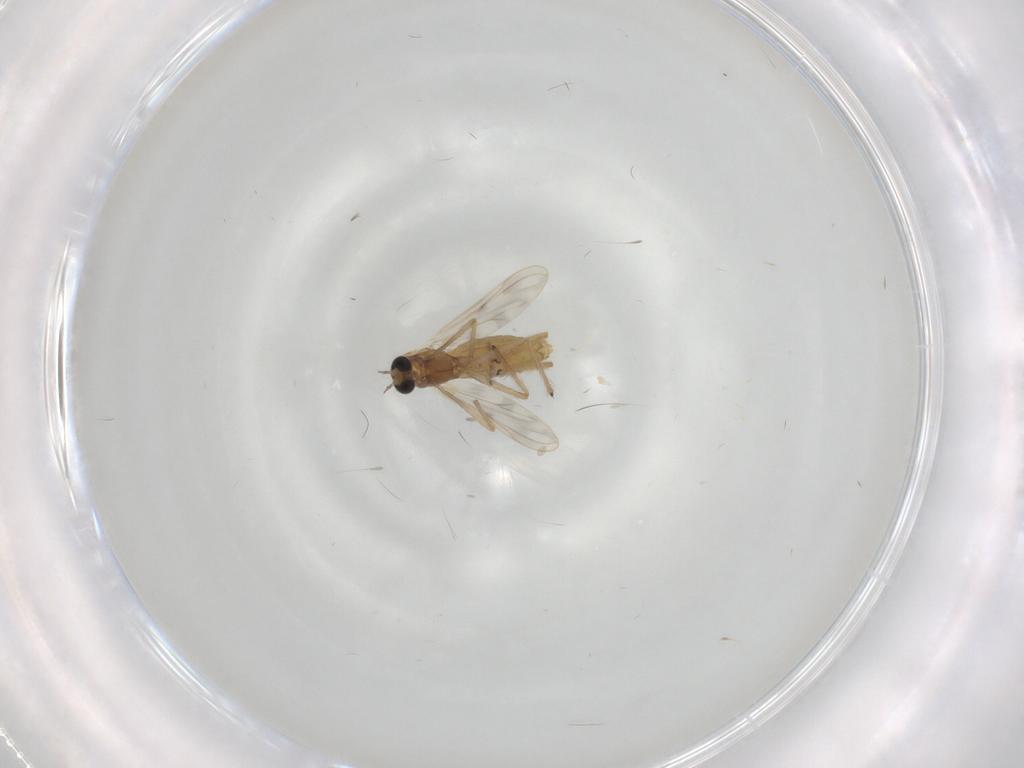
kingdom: Animalia
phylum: Arthropoda
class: Insecta
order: Diptera
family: Chironomidae
